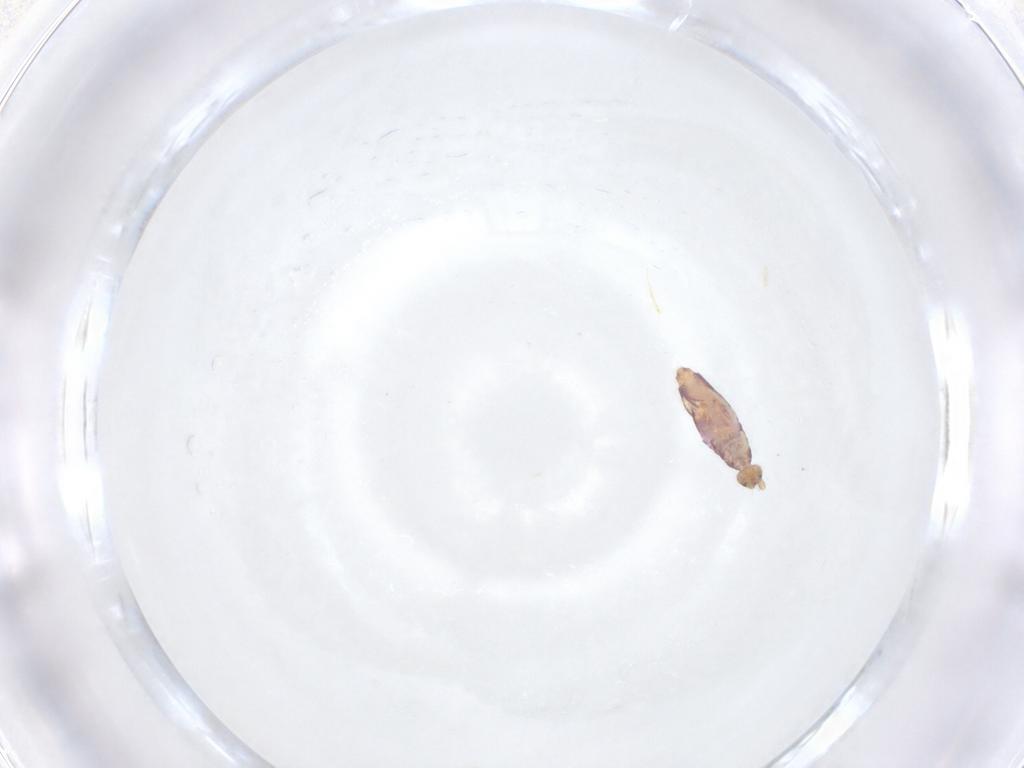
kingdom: Animalia
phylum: Arthropoda
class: Collembola
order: Entomobryomorpha
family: Entomobryidae
